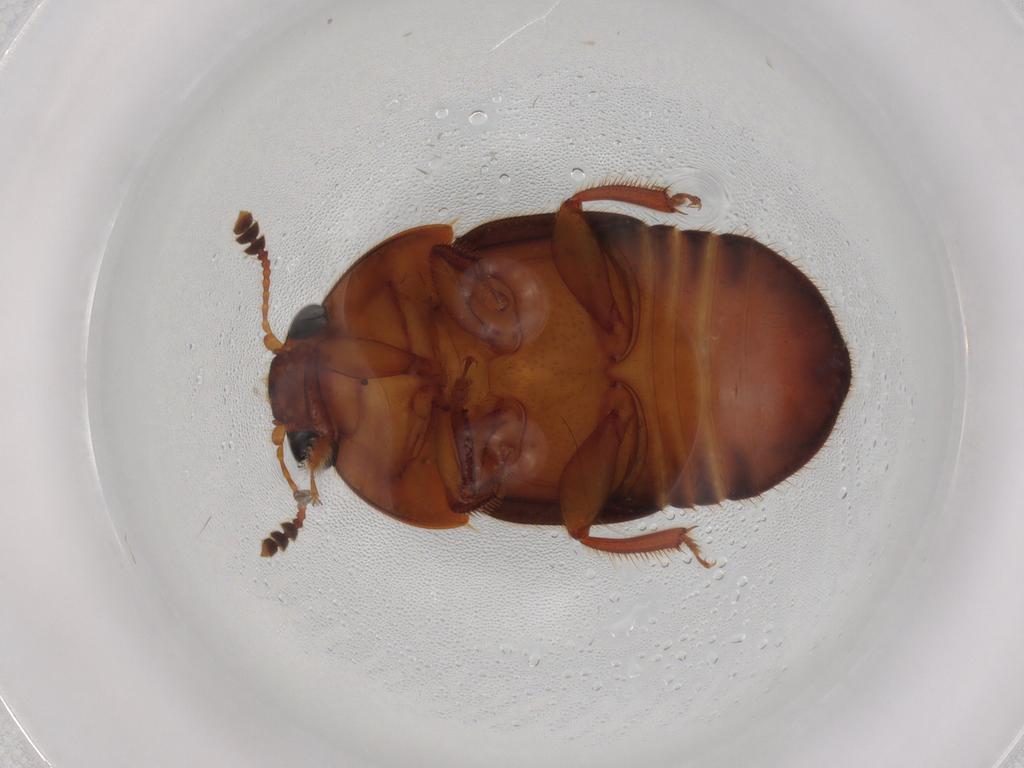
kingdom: Animalia
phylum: Arthropoda
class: Insecta
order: Coleoptera
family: Nitidulidae
